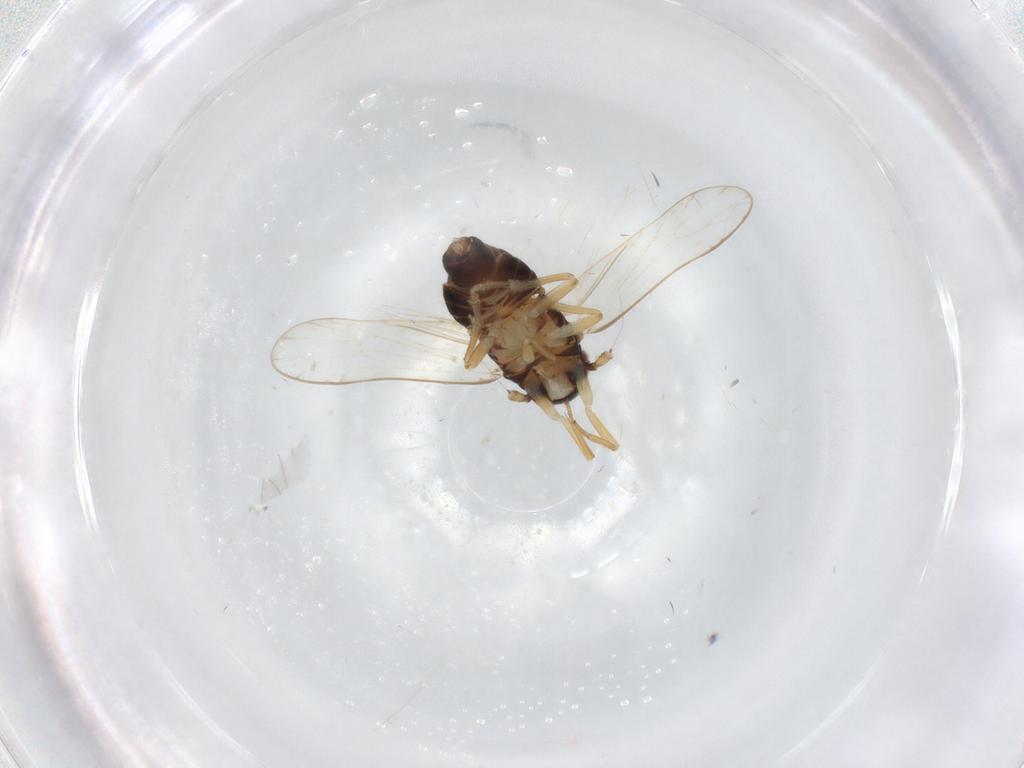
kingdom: Animalia
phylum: Arthropoda
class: Insecta
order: Hemiptera
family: Delphacidae
